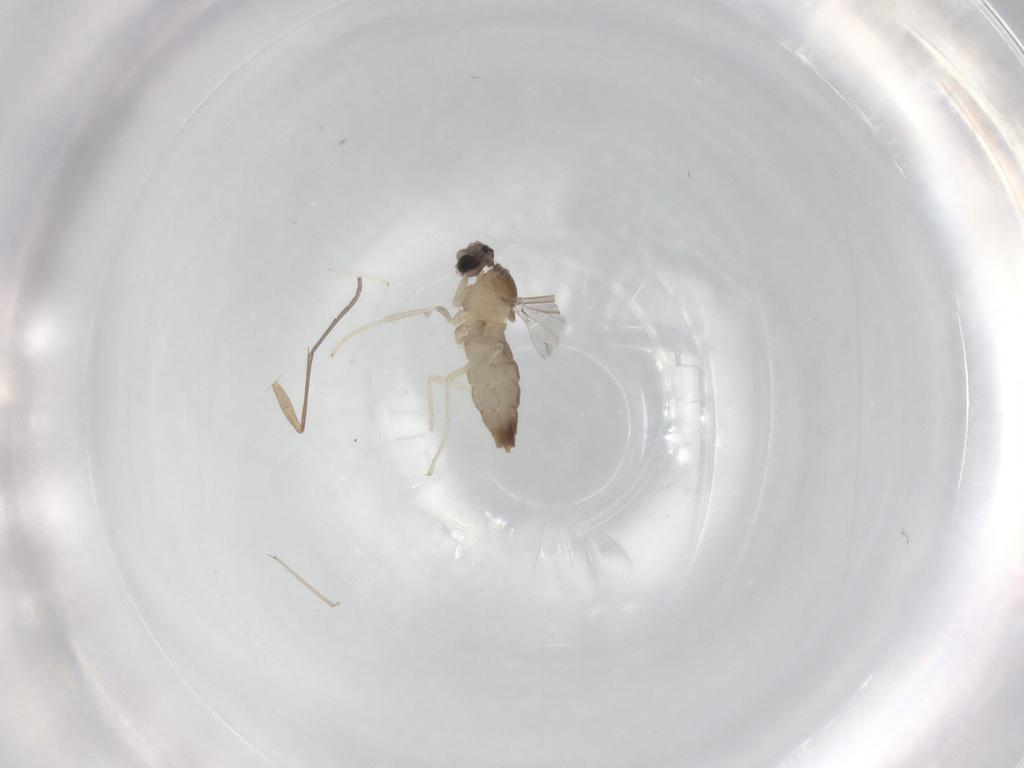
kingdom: Animalia
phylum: Arthropoda
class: Insecta
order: Diptera
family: Cecidomyiidae
